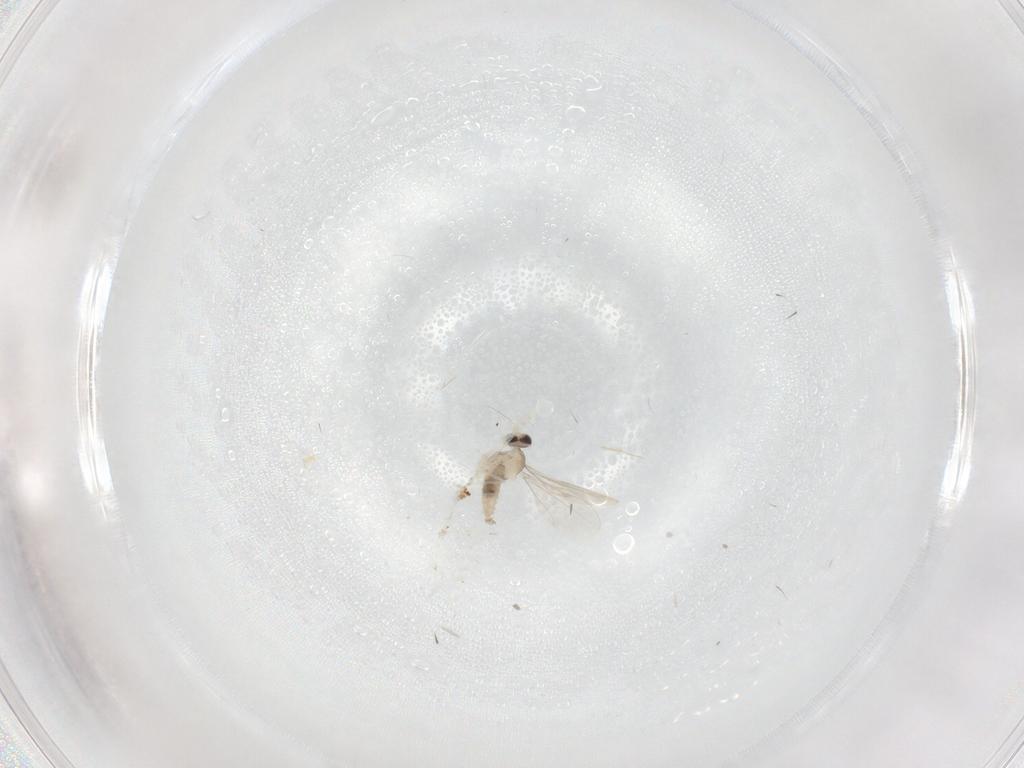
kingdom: Animalia
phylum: Arthropoda
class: Insecta
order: Diptera
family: Cecidomyiidae
